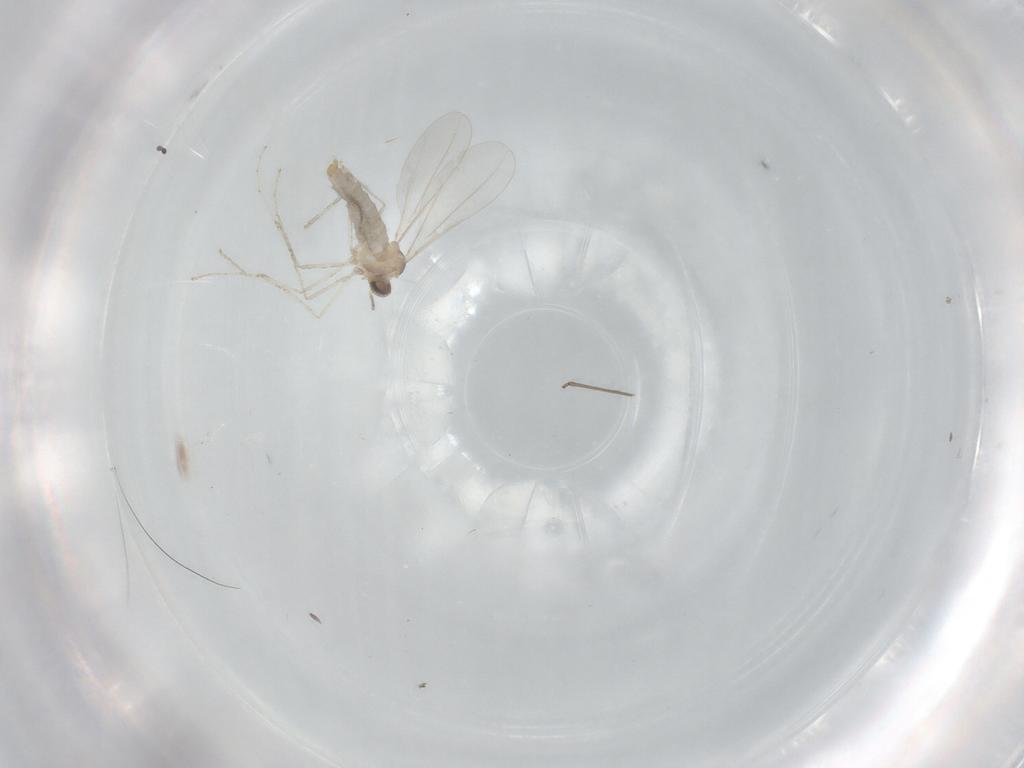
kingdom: Animalia
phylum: Arthropoda
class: Insecta
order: Diptera
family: Cecidomyiidae
